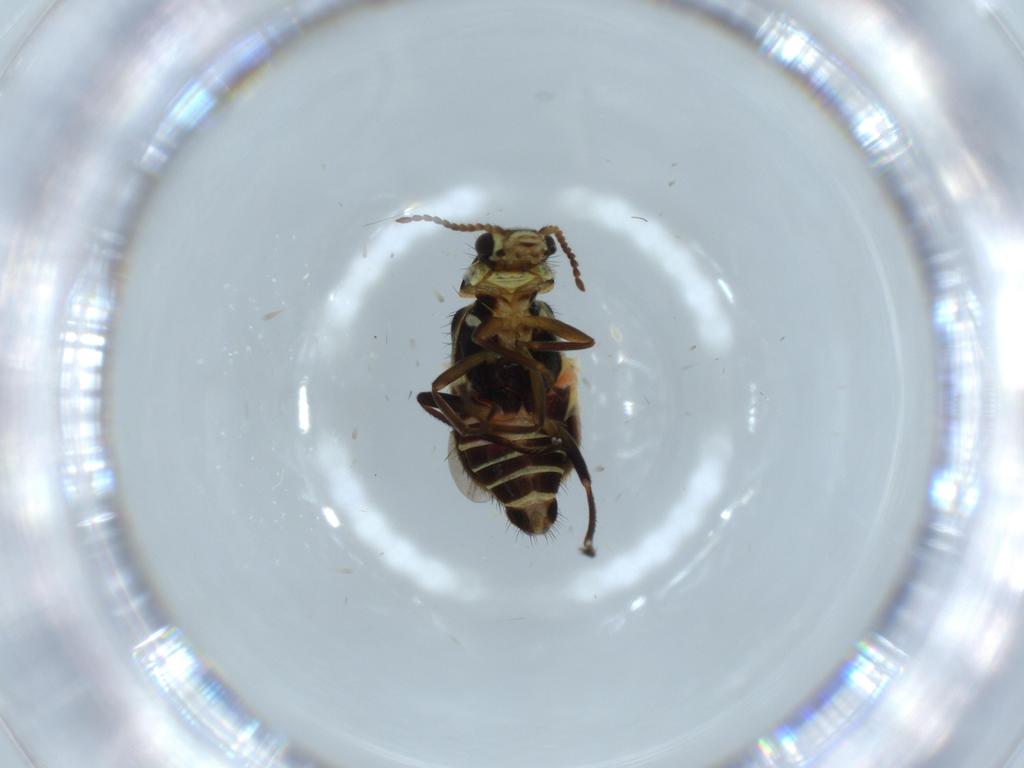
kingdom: Animalia
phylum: Arthropoda
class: Insecta
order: Coleoptera
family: Melyridae
